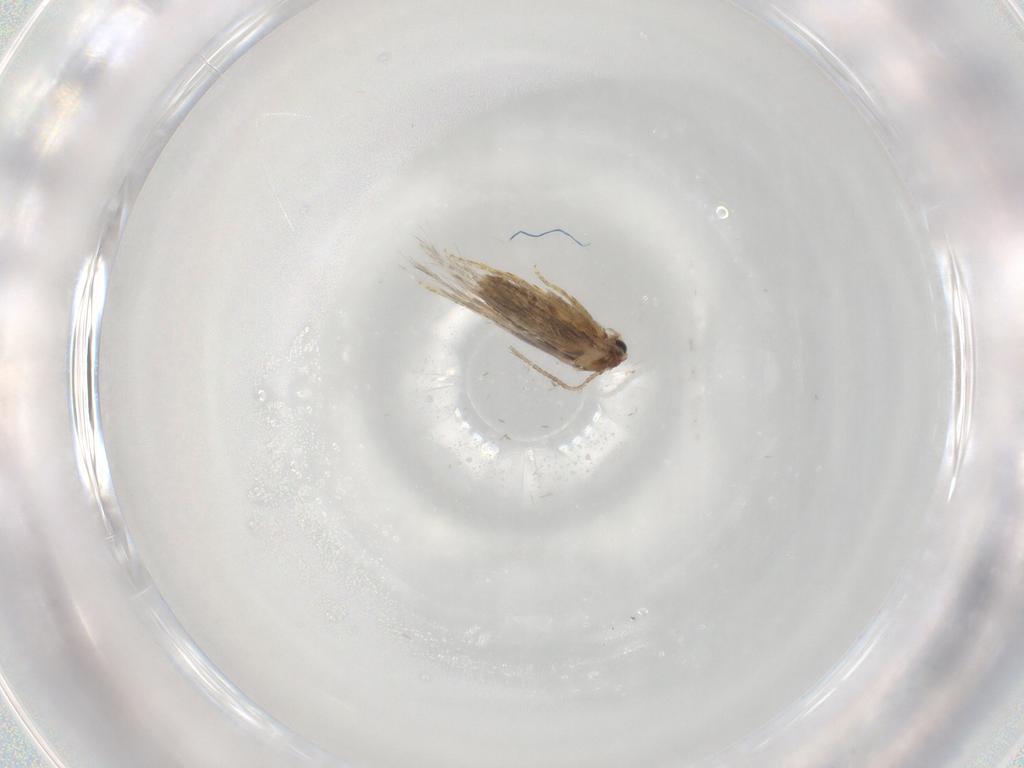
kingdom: Animalia
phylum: Arthropoda
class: Insecta
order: Lepidoptera
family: Nepticulidae
